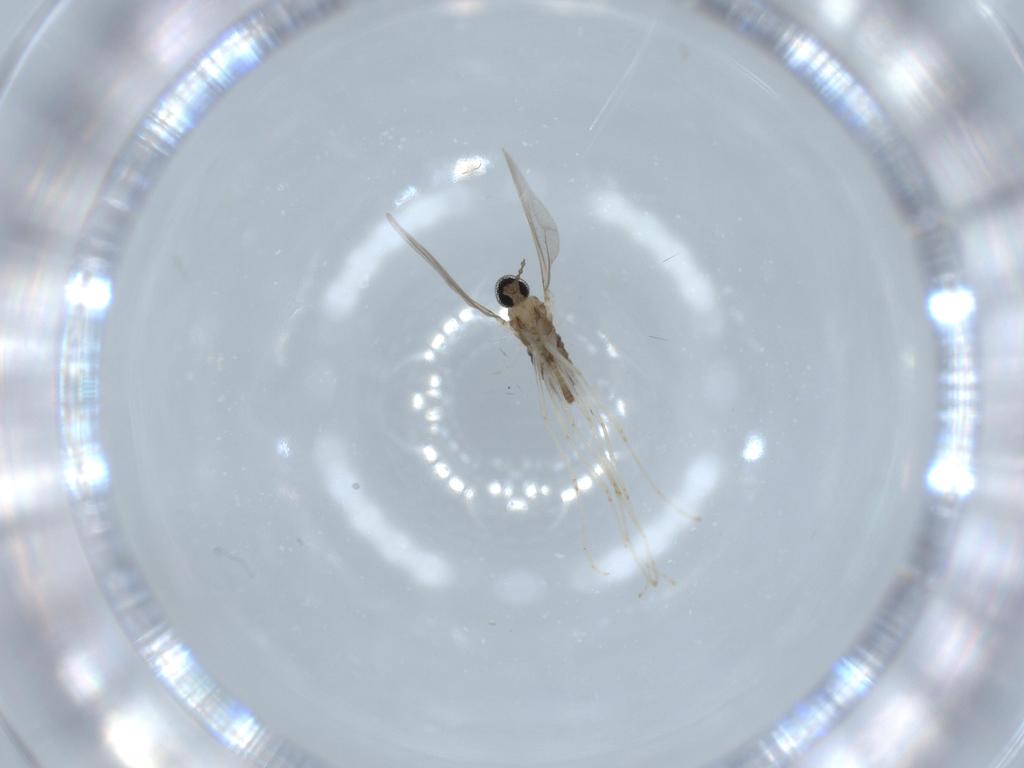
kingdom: Animalia
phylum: Arthropoda
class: Insecta
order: Diptera
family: Cecidomyiidae
